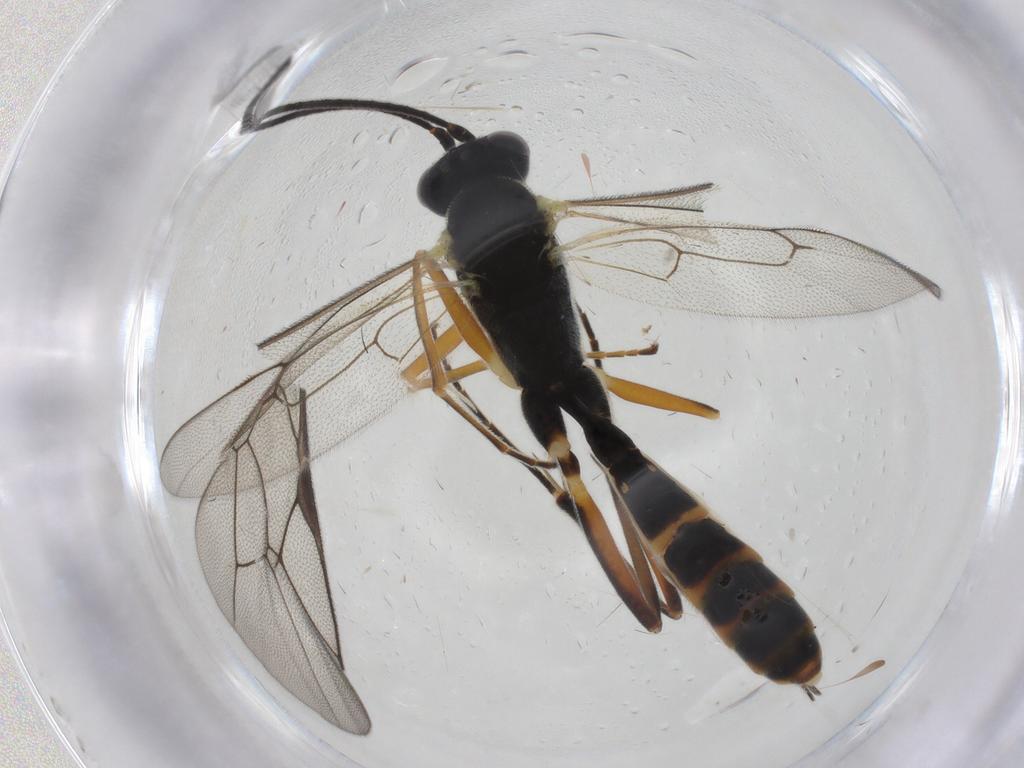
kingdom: Animalia
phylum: Arthropoda
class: Insecta
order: Hymenoptera
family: Ichneumonidae
